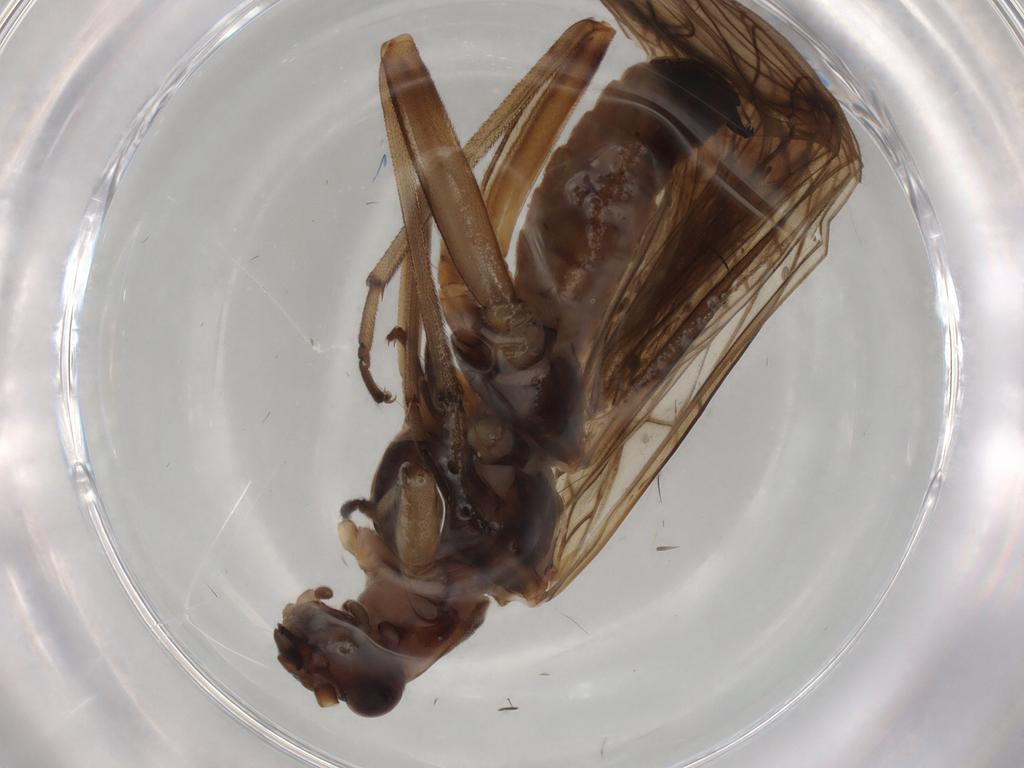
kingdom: Animalia
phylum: Arthropoda
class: Insecta
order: Plecoptera
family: Nemouridae
